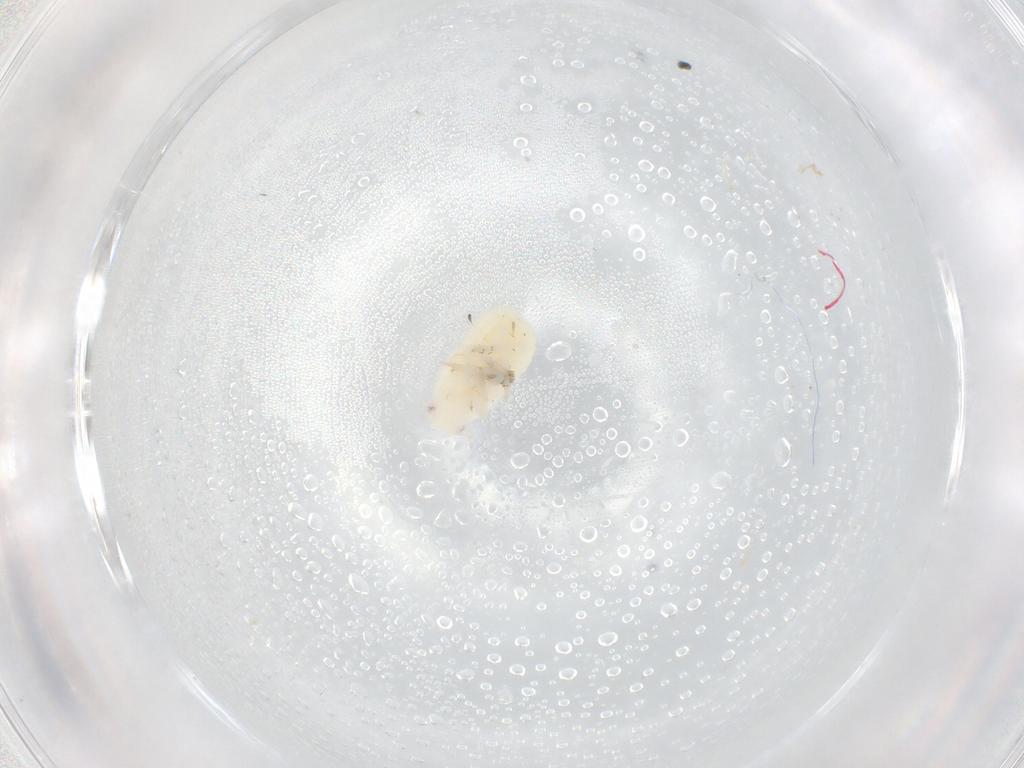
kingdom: Animalia
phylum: Arthropoda
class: Insecta
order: Hemiptera
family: Flatidae
